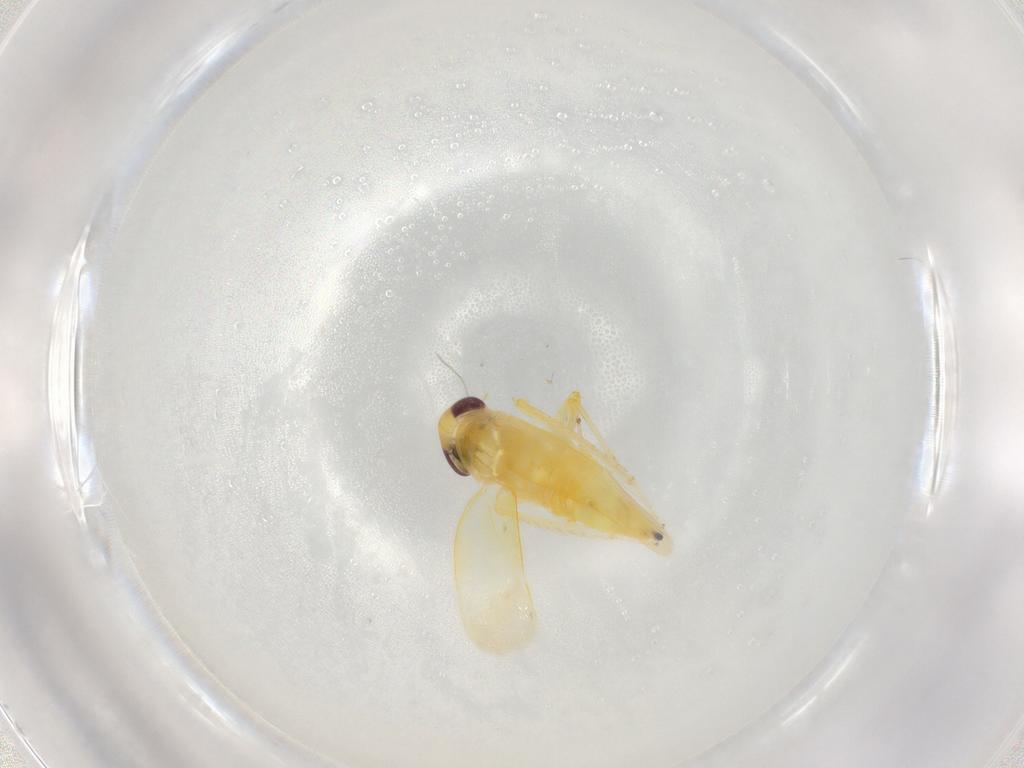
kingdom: Animalia
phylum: Arthropoda
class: Insecta
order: Hemiptera
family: Cicadellidae
